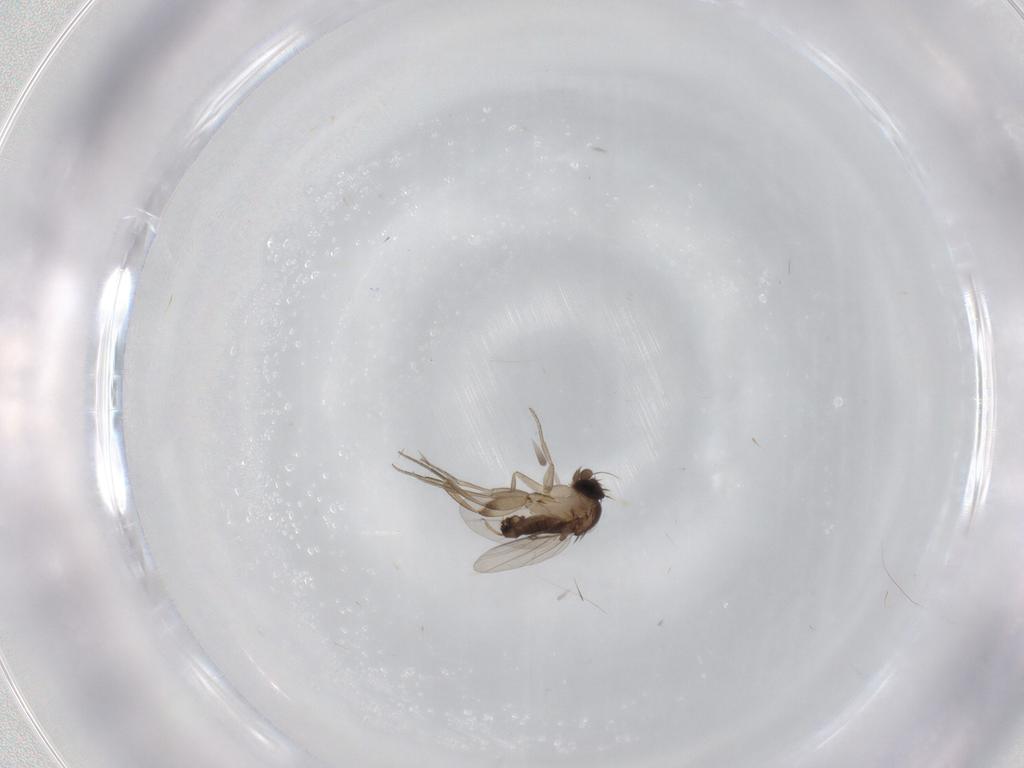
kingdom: Animalia
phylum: Arthropoda
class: Insecta
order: Diptera
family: Phoridae
